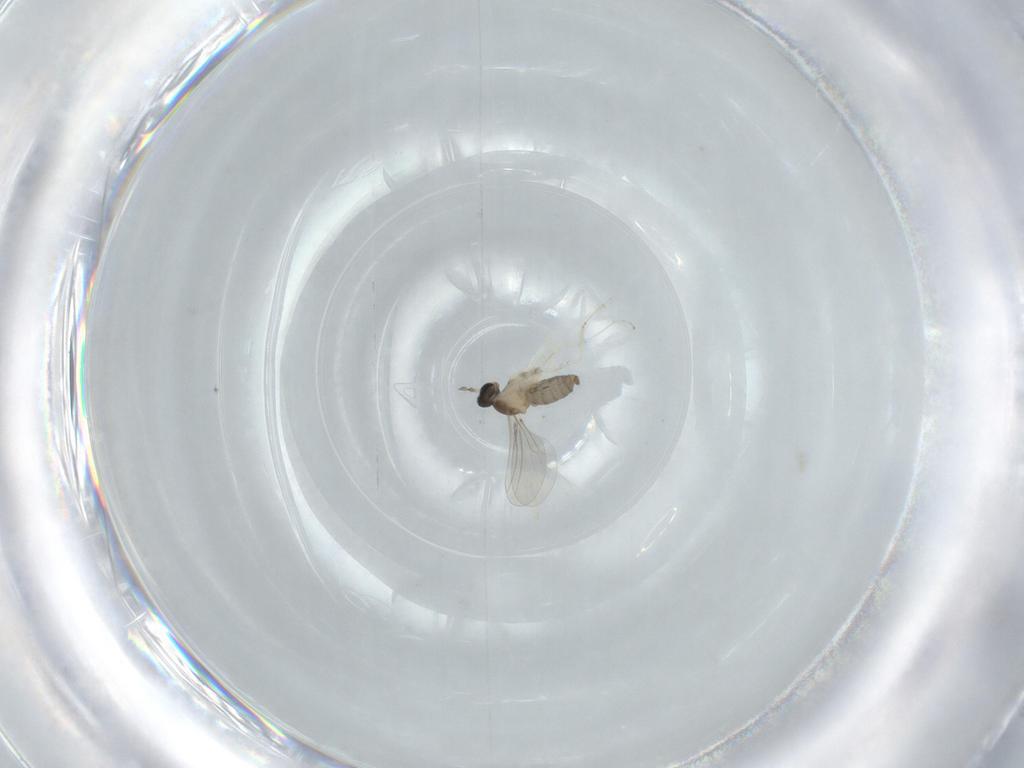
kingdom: Animalia
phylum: Arthropoda
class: Insecta
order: Diptera
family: Cecidomyiidae
